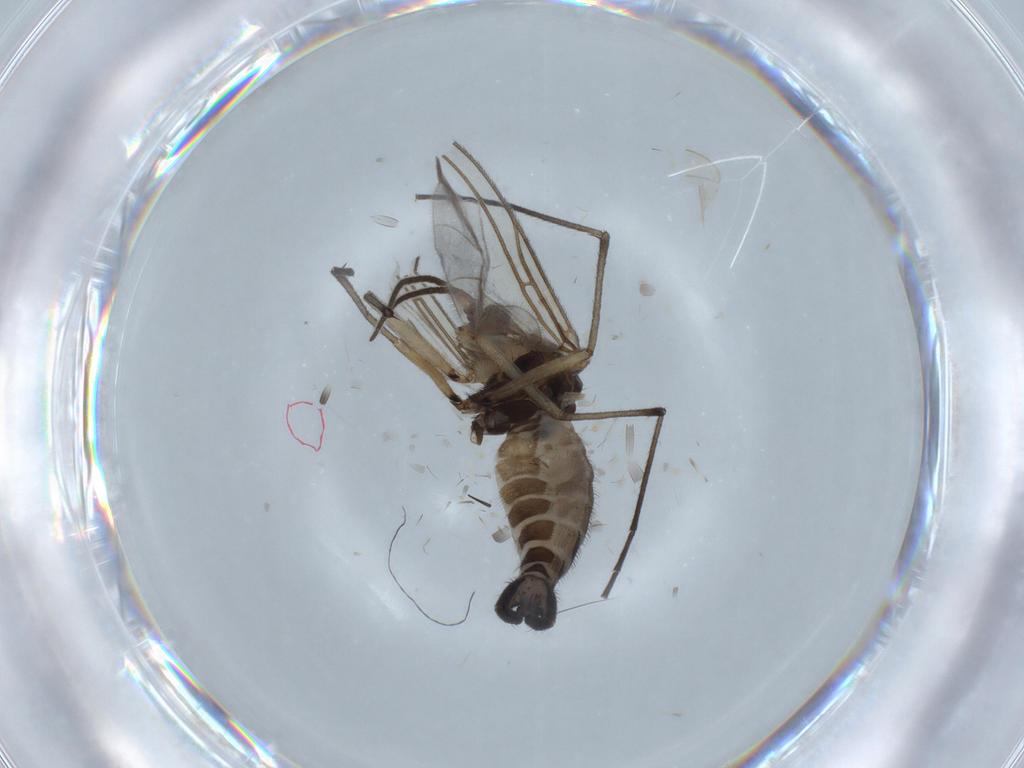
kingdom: Animalia
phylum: Arthropoda
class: Insecta
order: Diptera
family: Sciaridae
